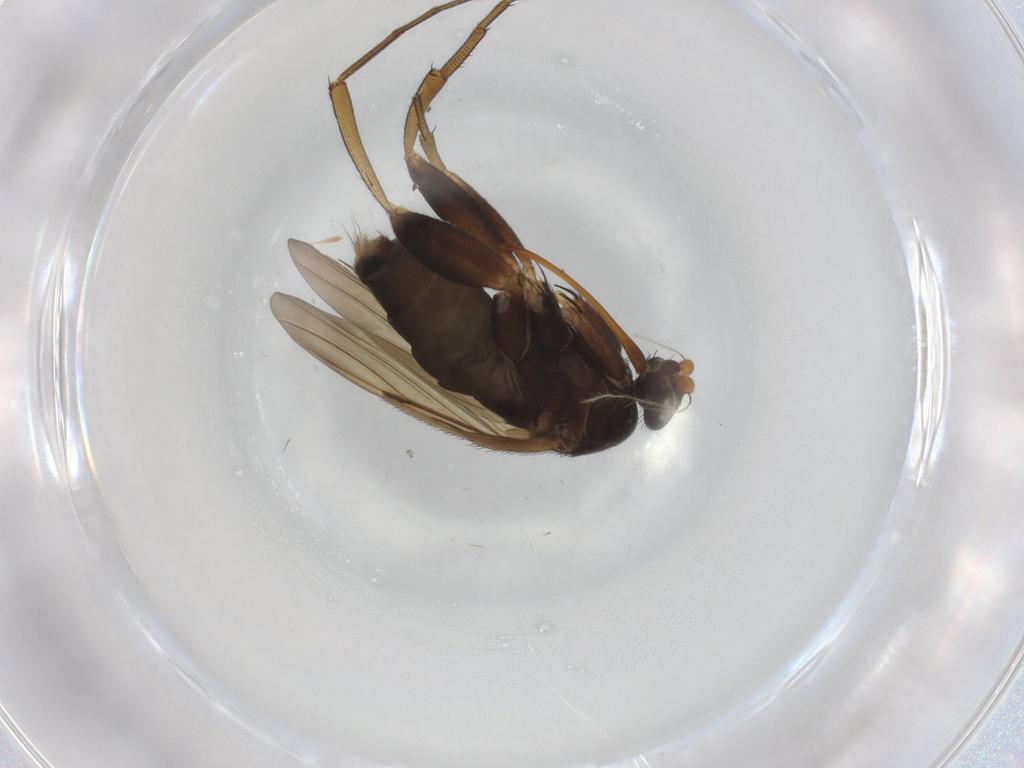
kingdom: Animalia
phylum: Arthropoda
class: Insecta
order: Diptera
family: Phoridae
